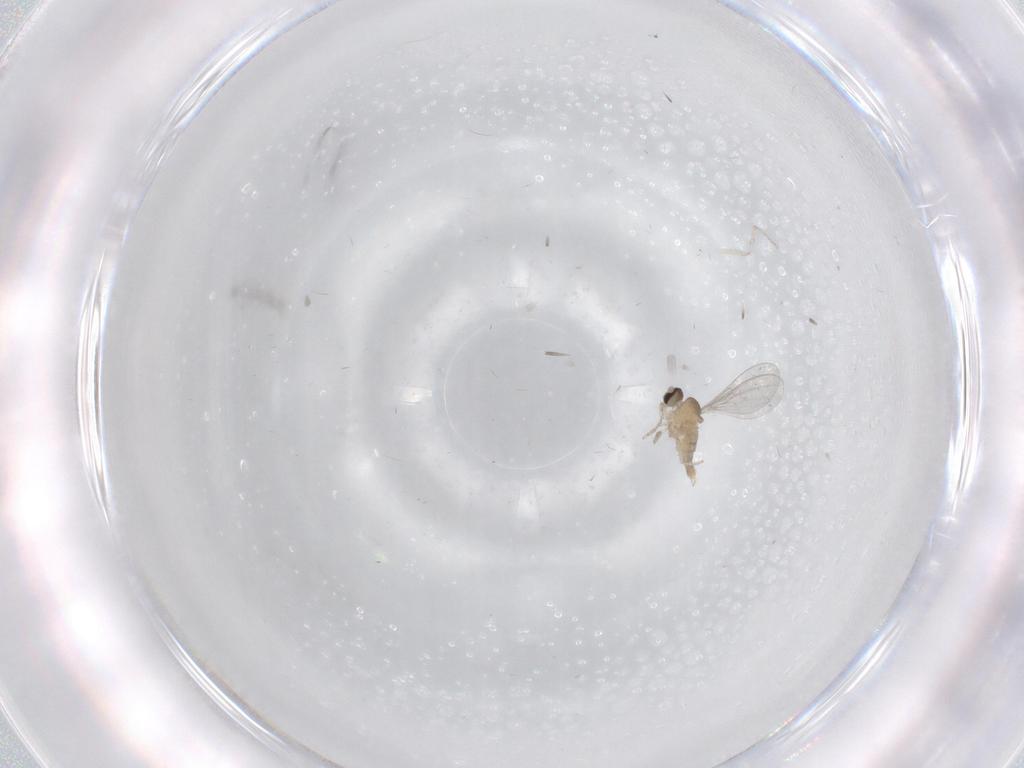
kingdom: Animalia
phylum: Arthropoda
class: Insecta
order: Diptera
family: Cecidomyiidae
